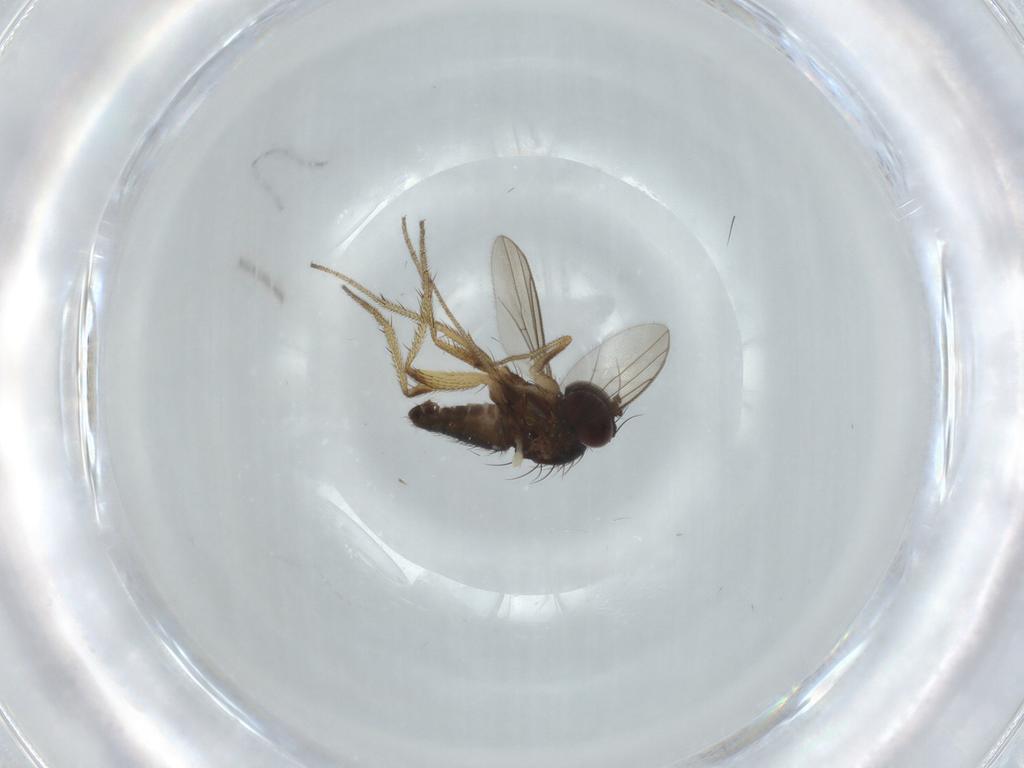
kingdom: Animalia
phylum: Arthropoda
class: Insecta
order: Diptera
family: Dolichopodidae
